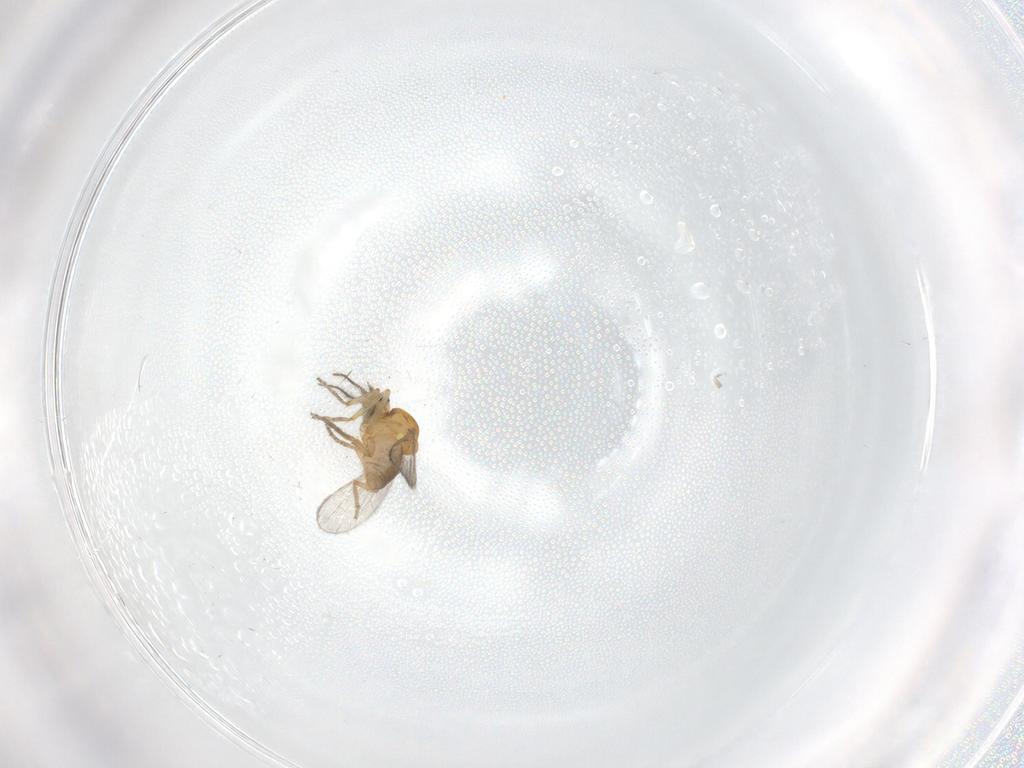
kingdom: Animalia
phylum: Arthropoda
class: Insecta
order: Diptera
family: Ceratopogonidae
